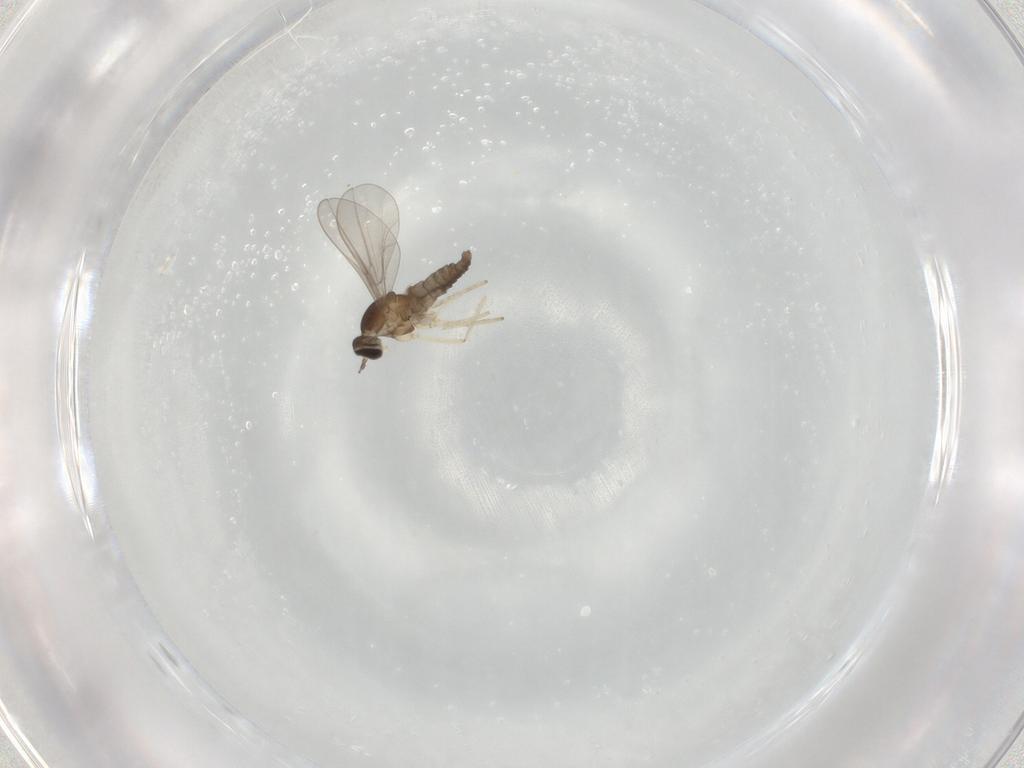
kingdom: Animalia
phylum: Arthropoda
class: Insecta
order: Diptera
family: Cecidomyiidae
